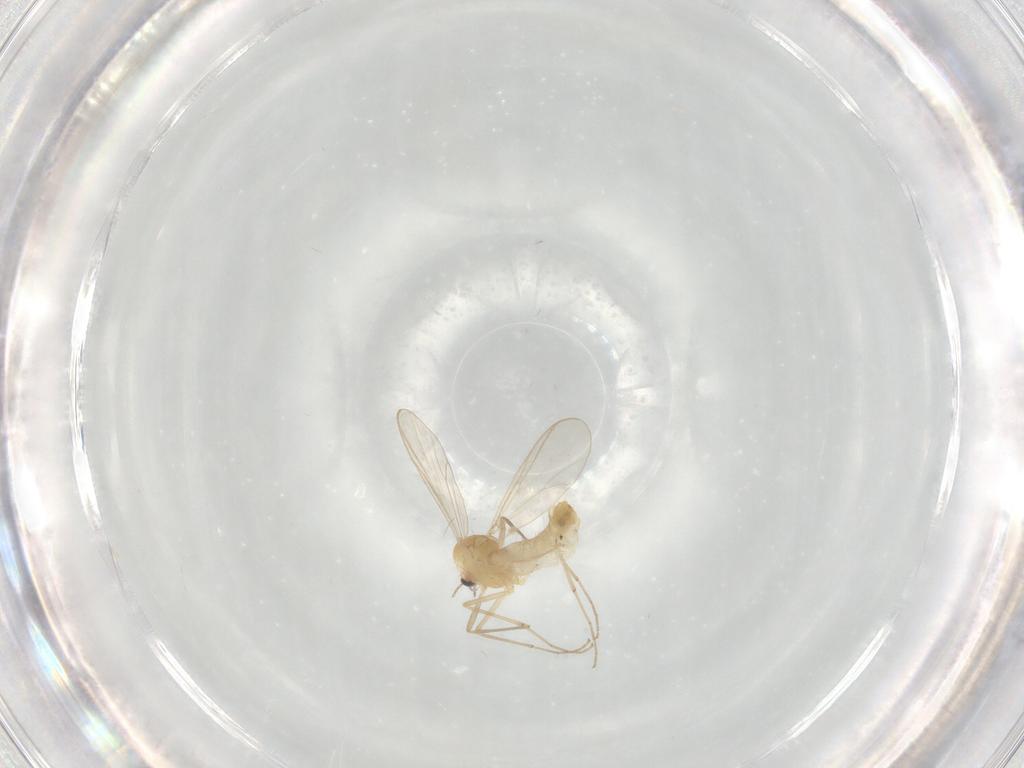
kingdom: Animalia
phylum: Arthropoda
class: Insecta
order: Diptera
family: Chironomidae
